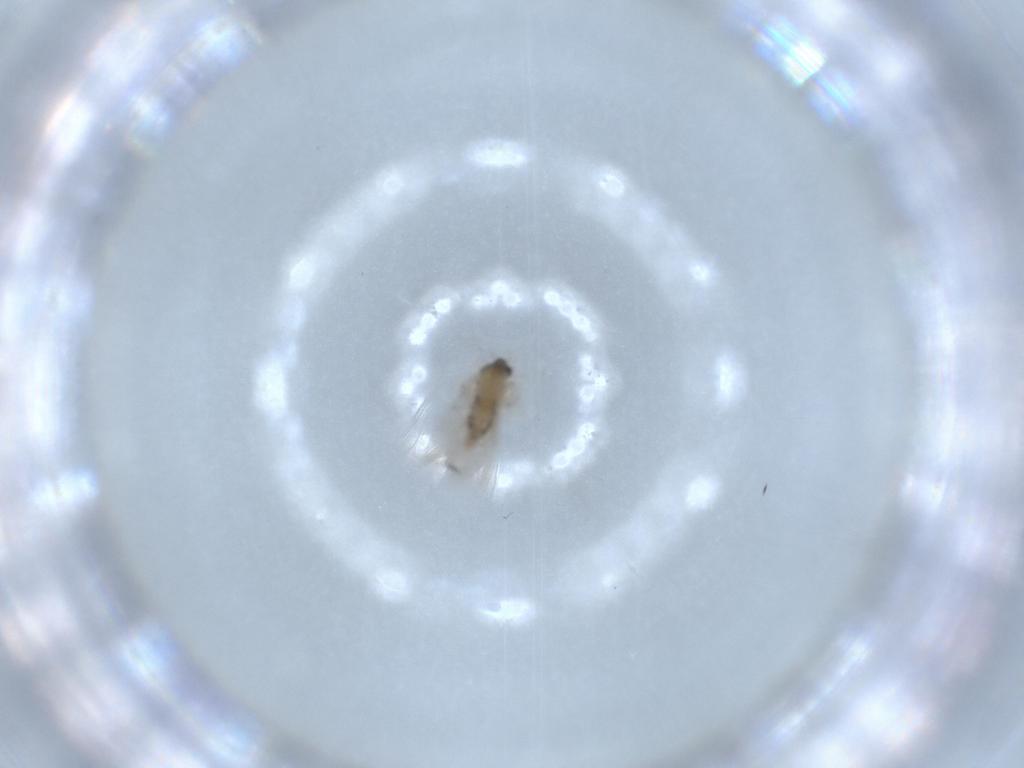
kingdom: Animalia
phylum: Arthropoda
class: Insecta
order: Diptera
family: Cecidomyiidae
